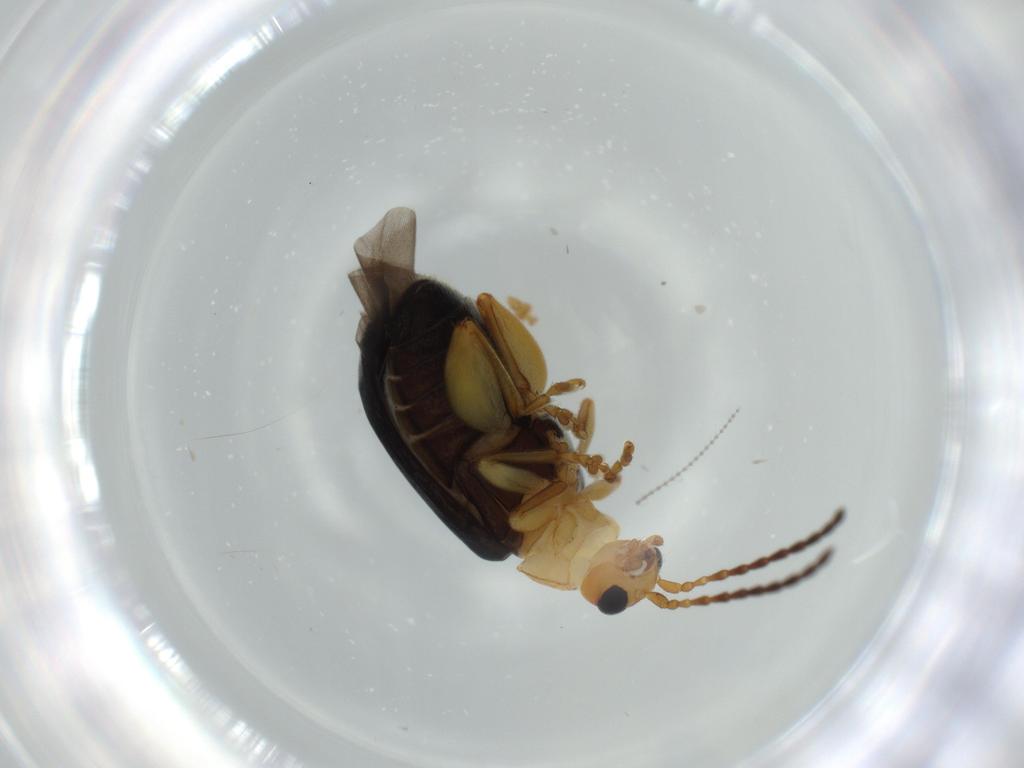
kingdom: Animalia
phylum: Arthropoda
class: Insecta
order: Coleoptera
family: Chrysomelidae
